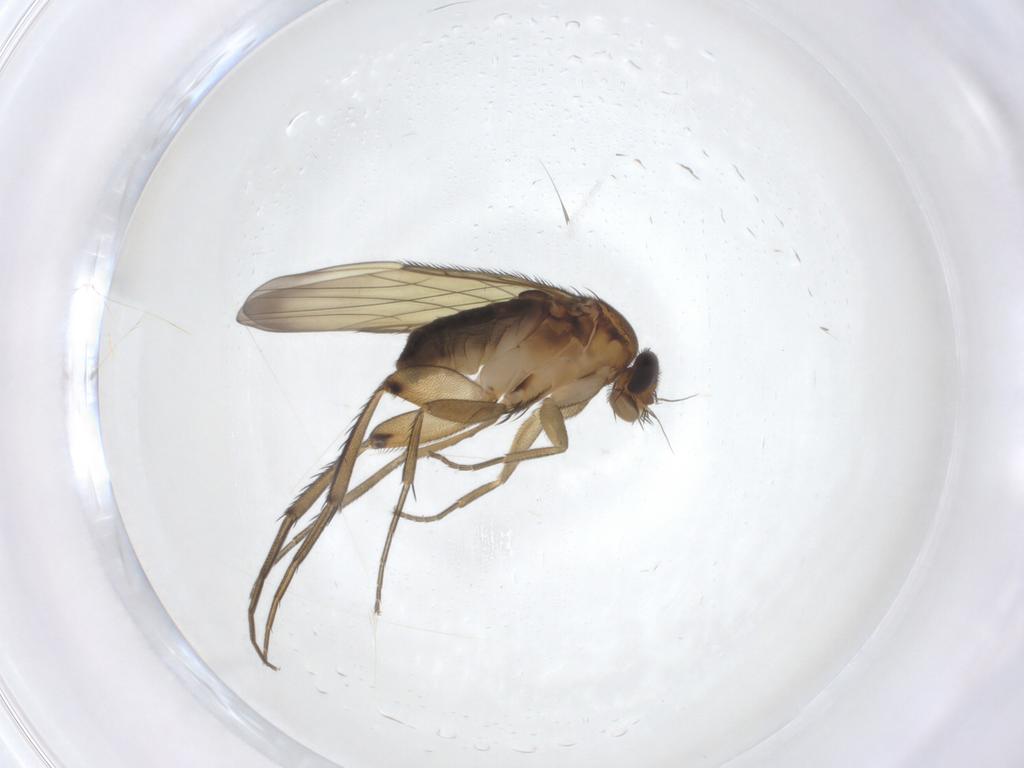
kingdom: Animalia
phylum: Arthropoda
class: Insecta
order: Diptera
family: Phoridae
